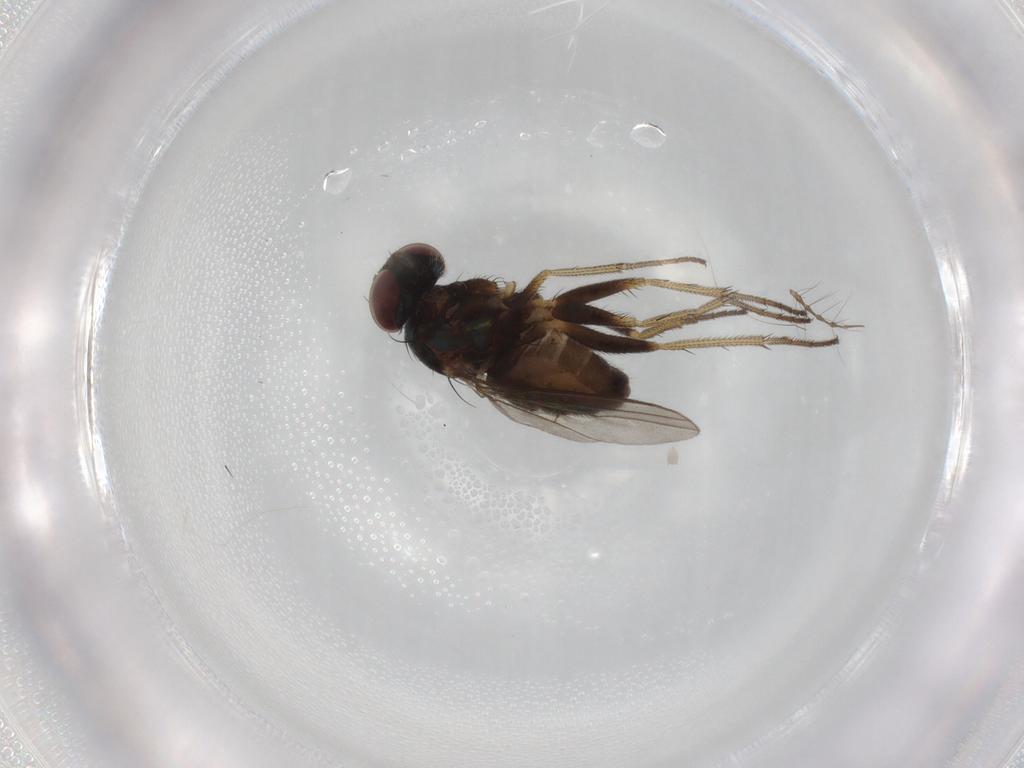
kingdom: Animalia
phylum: Arthropoda
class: Insecta
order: Diptera
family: Dolichopodidae
